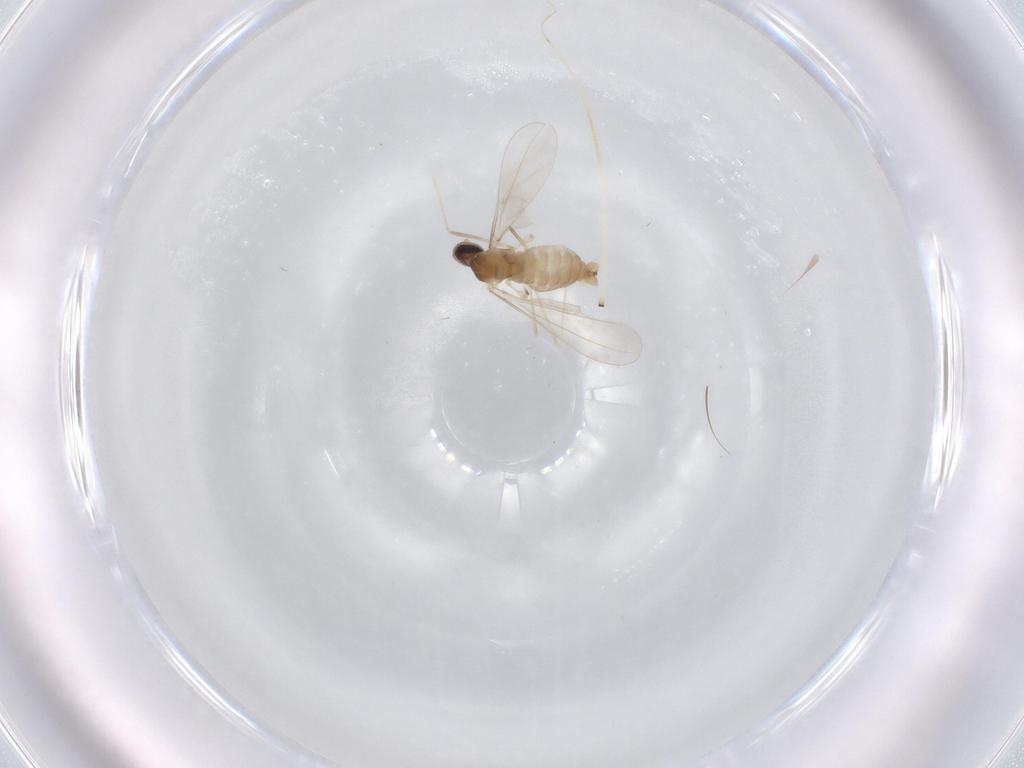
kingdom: Animalia
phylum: Arthropoda
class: Insecta
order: Diptera
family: Cecidomyiidae
